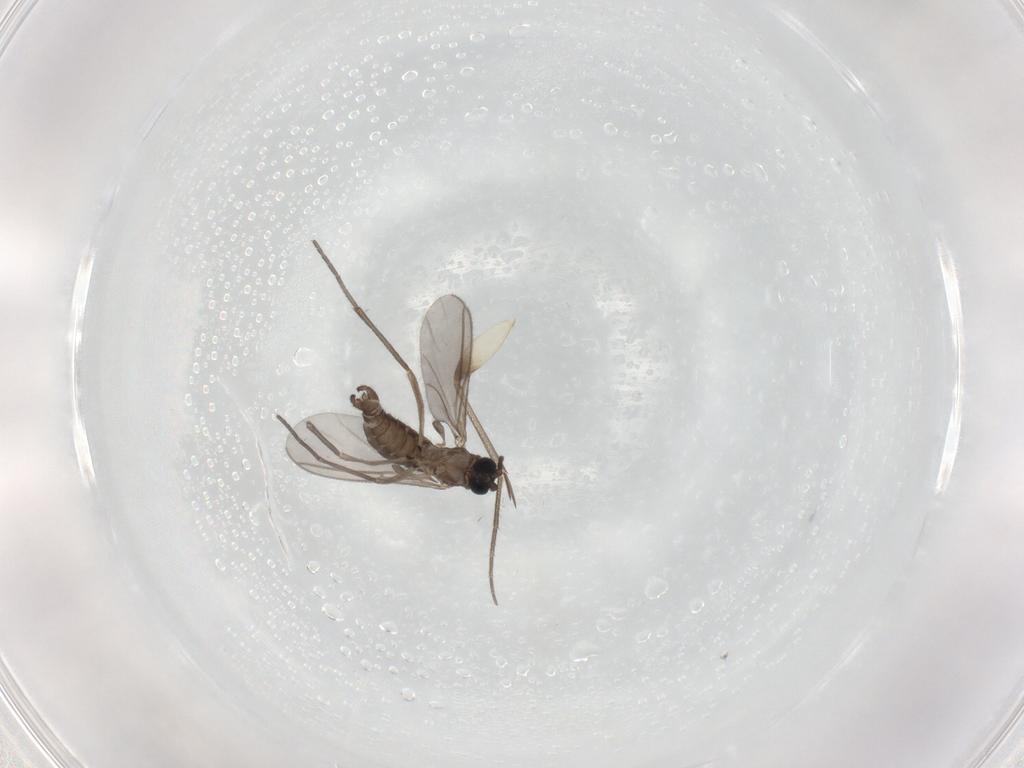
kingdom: Animalia
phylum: Arthropoda
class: Insecta
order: Diptera
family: Sciaridae
